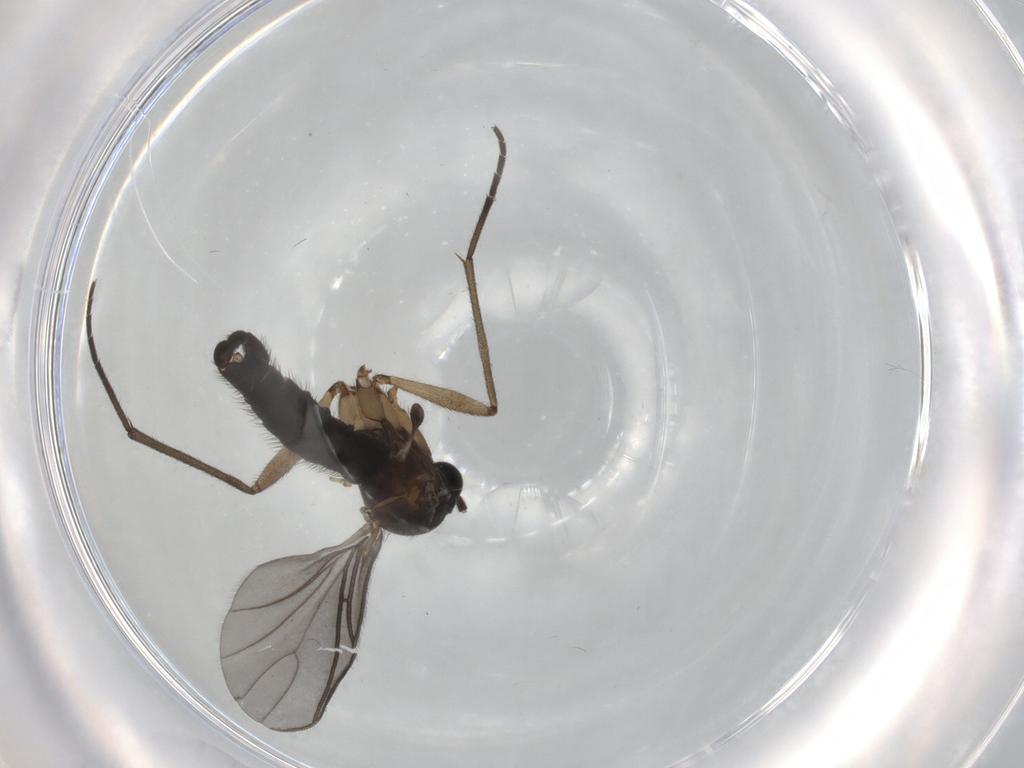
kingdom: Animalia
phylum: Arthropoda
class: Insecta
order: Diptera
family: Sciaridae
